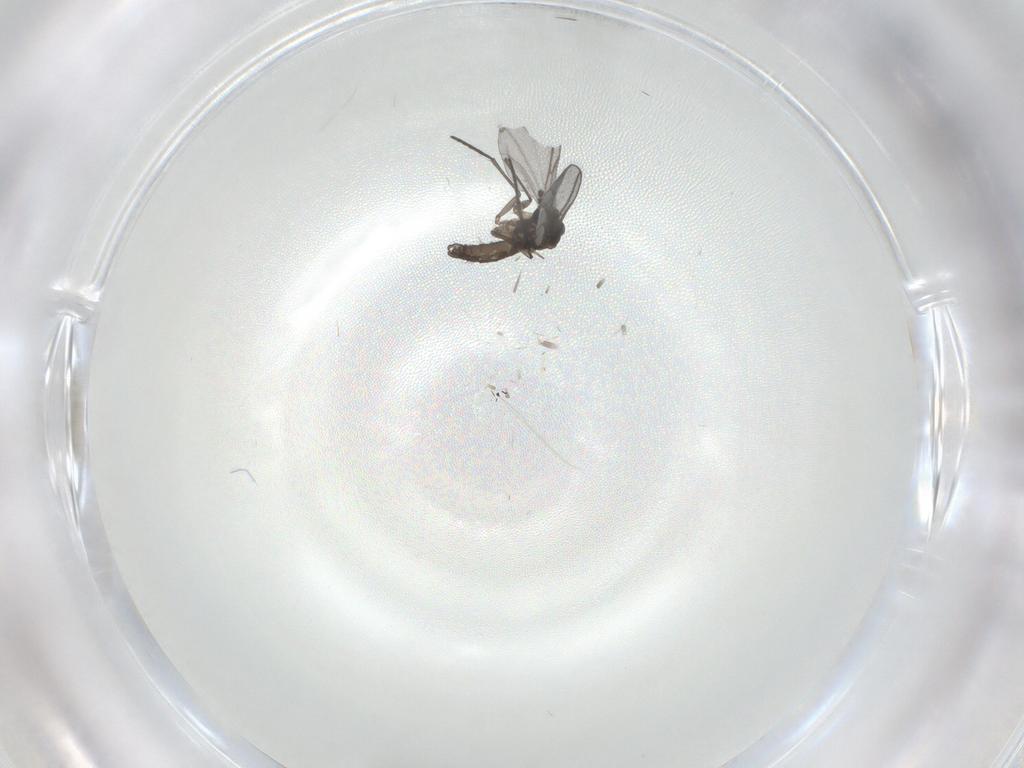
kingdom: Animalia
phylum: Arthropoda
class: Insecta
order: Diptera
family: Sciaridae
